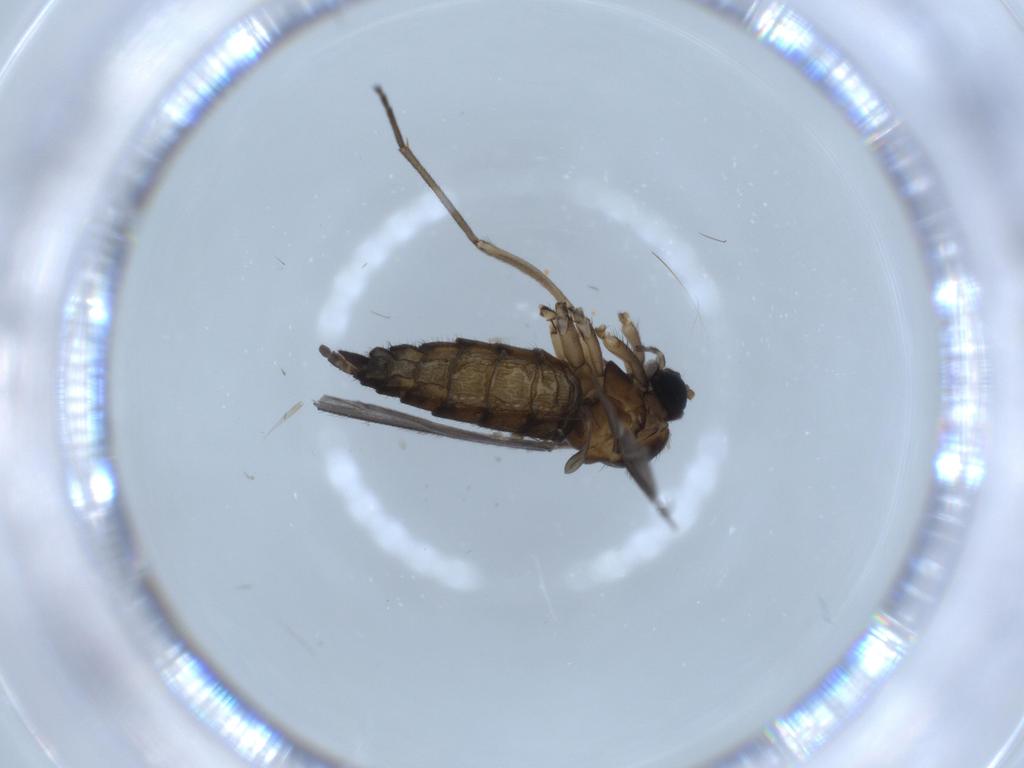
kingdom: Animalia
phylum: Arthropoda
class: Insecta
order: Diptera
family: Sciaridae
